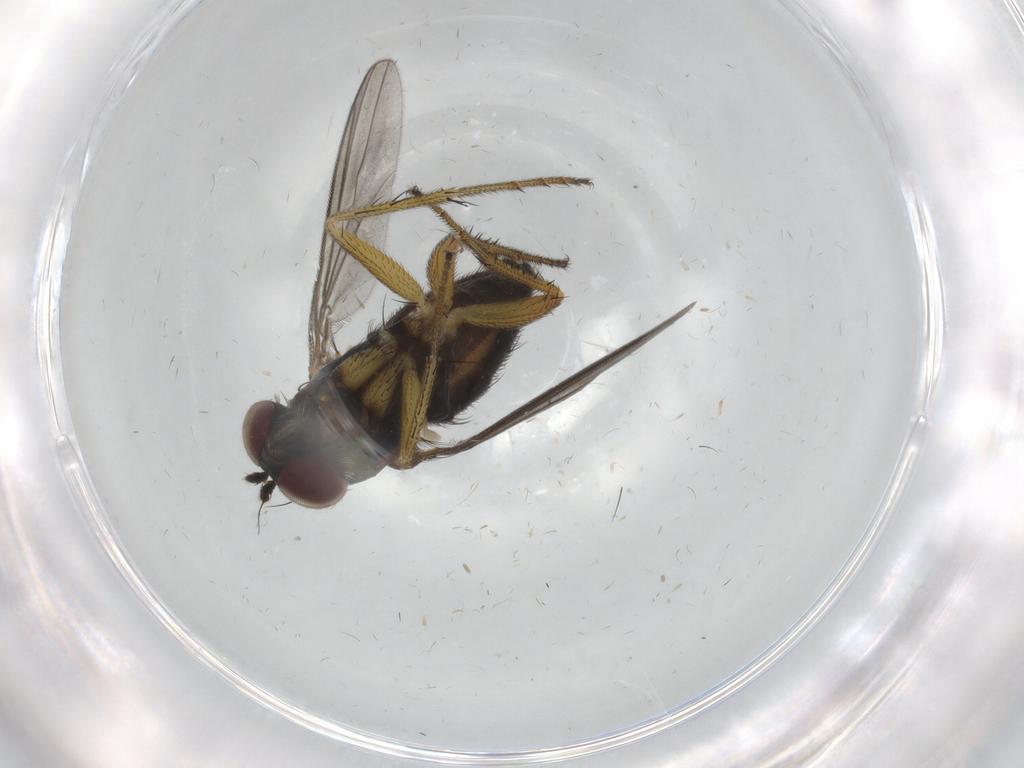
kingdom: Animalia
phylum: Arthropoda
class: Insecta
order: Diptera
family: Dolichopodidae
